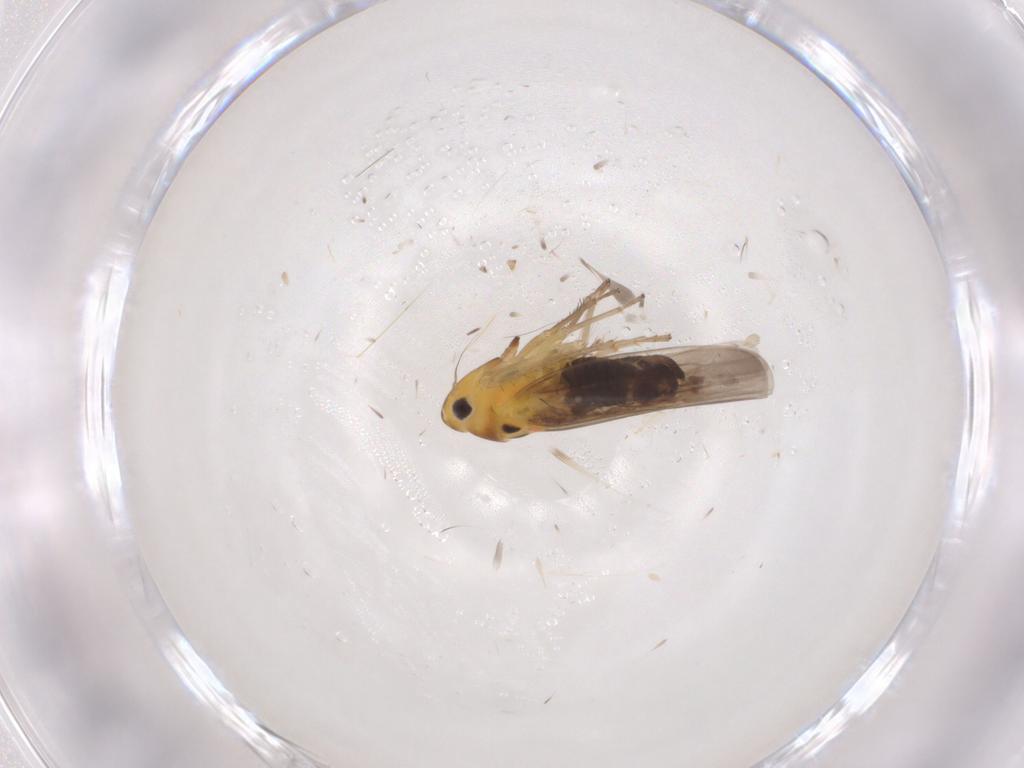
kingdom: Animalia
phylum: Arthropoda
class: Insecta
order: Hemiptera
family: Cicadellidae
